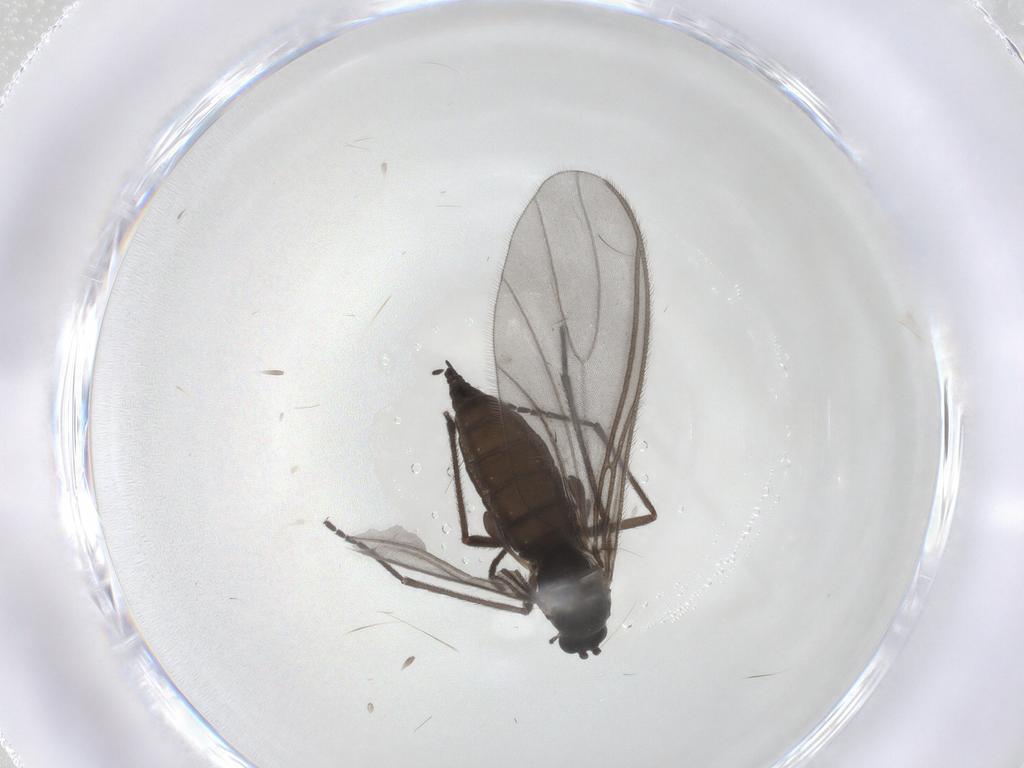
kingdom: Animalia
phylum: Arthropoda
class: Insecta
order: Diptera
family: Sciaridae
